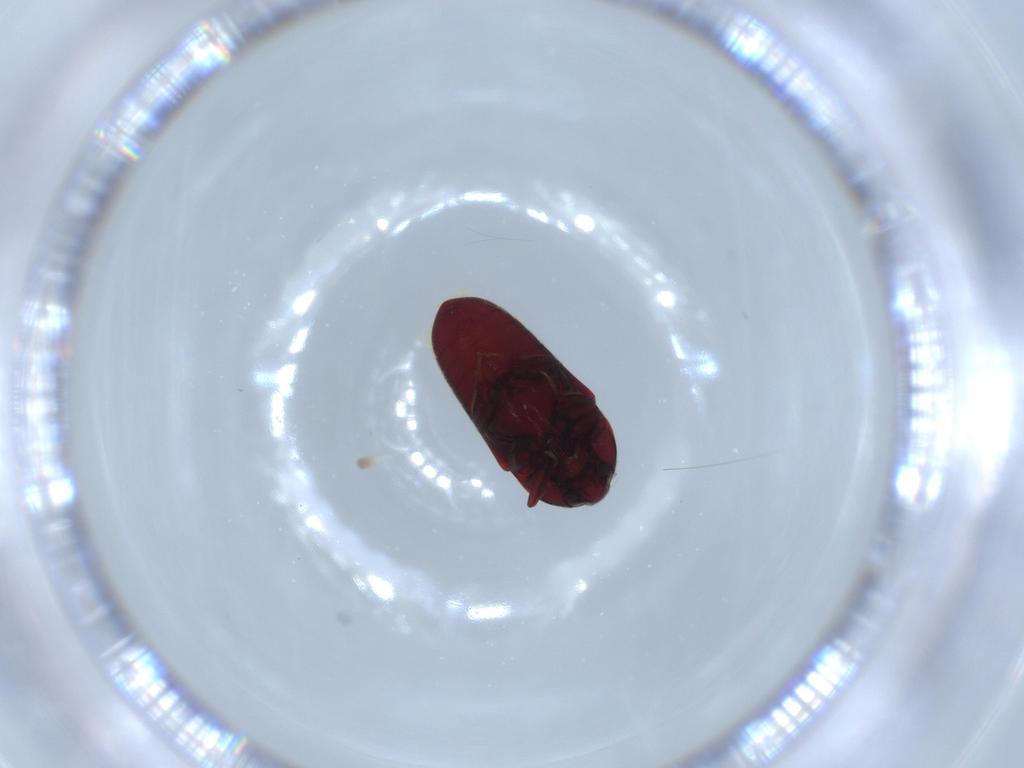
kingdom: Animalia
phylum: Arthropoda
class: Insecta
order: Coleoptera
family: Throscidae
